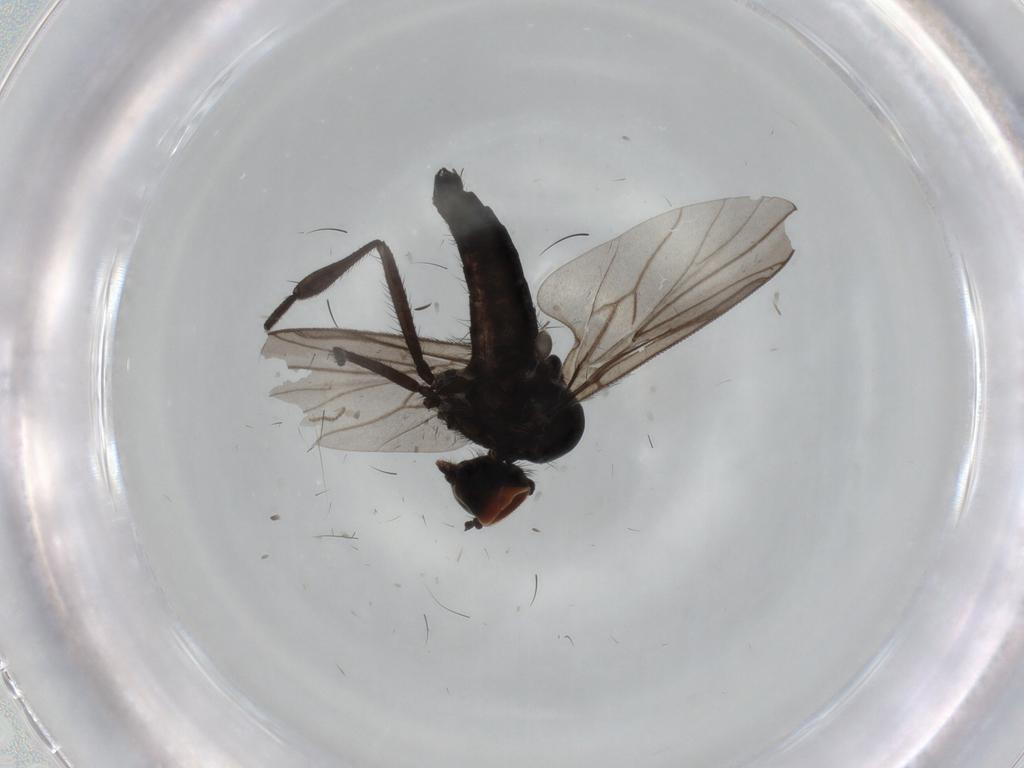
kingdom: Animalia
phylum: Arthropoda
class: Insecta
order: Diptera
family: Hybotidae
